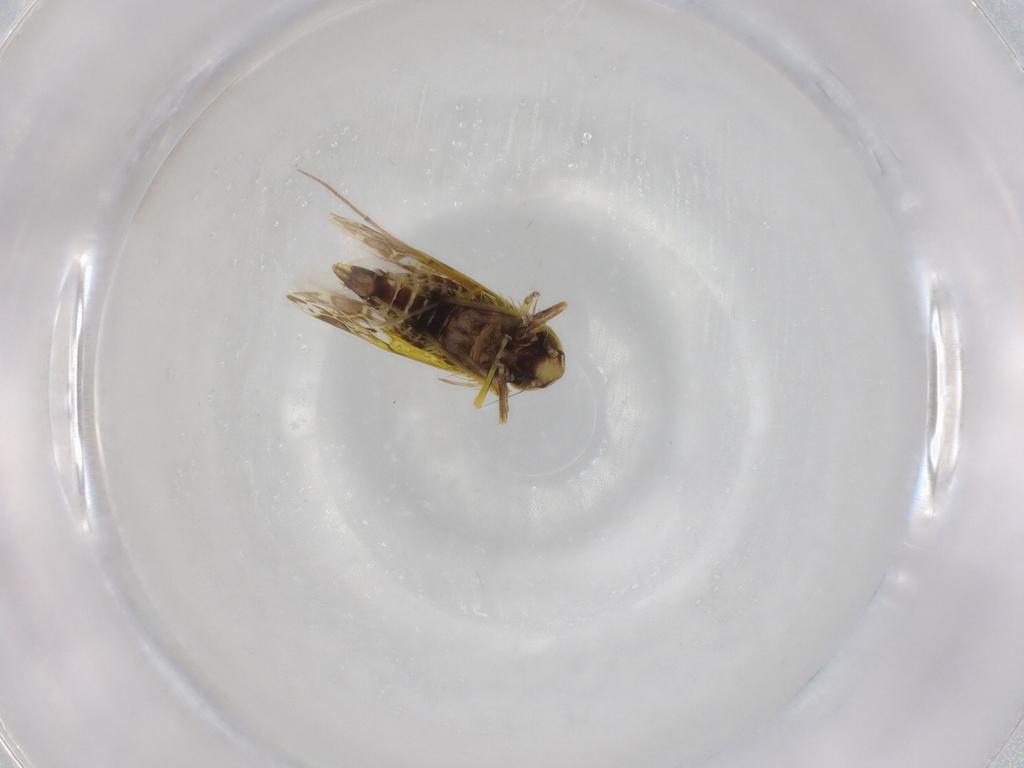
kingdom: Animalia
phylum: Arthropoda
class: Insecta
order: Hemiptera
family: Cicadellidae
